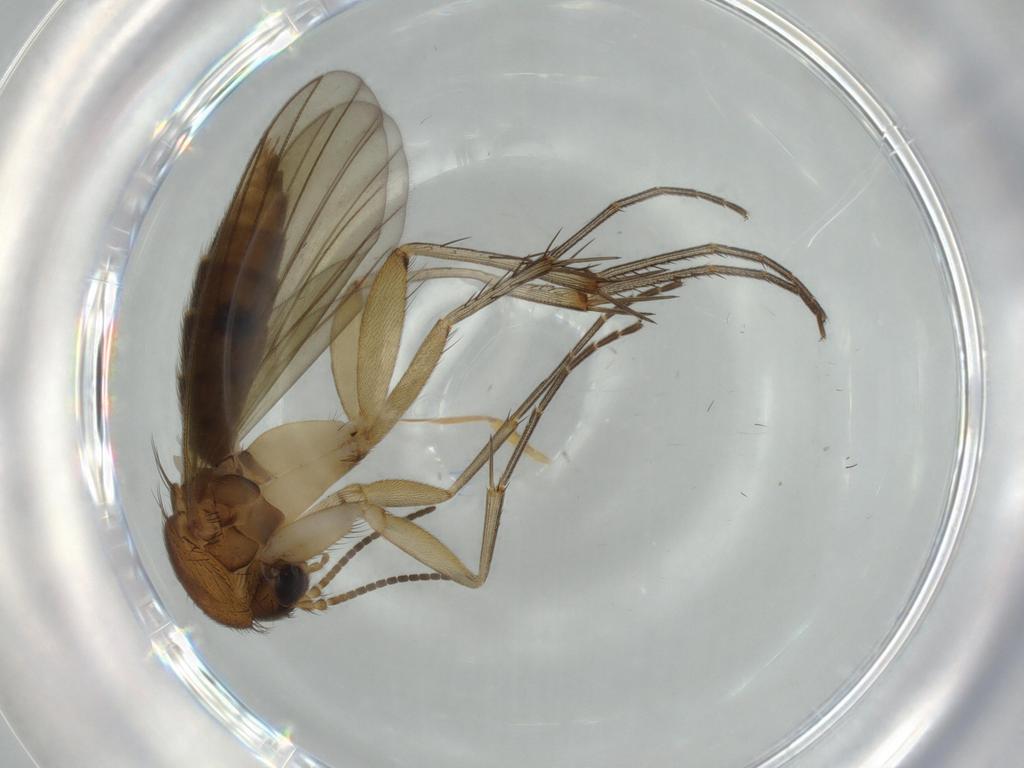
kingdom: Animalia
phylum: Arthropoda
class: Insecta
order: Diptera
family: Mycetophilidae
